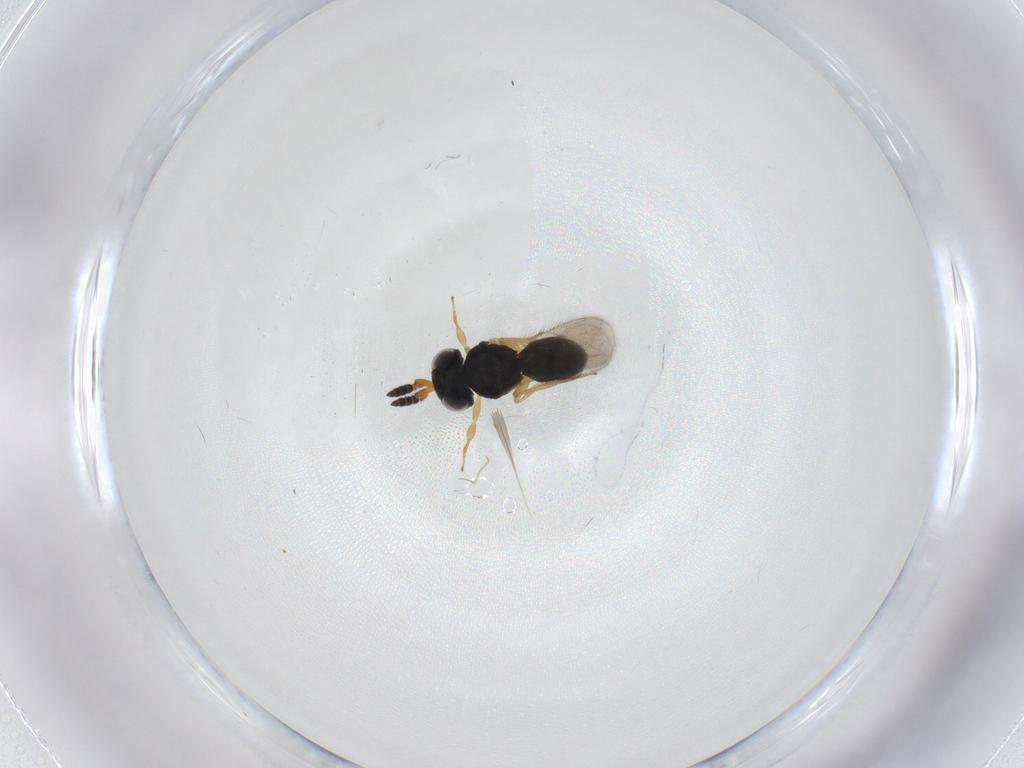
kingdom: Animalia
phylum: Arthropoda
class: Insecta
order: Hymenoptera
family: Scelionidae
